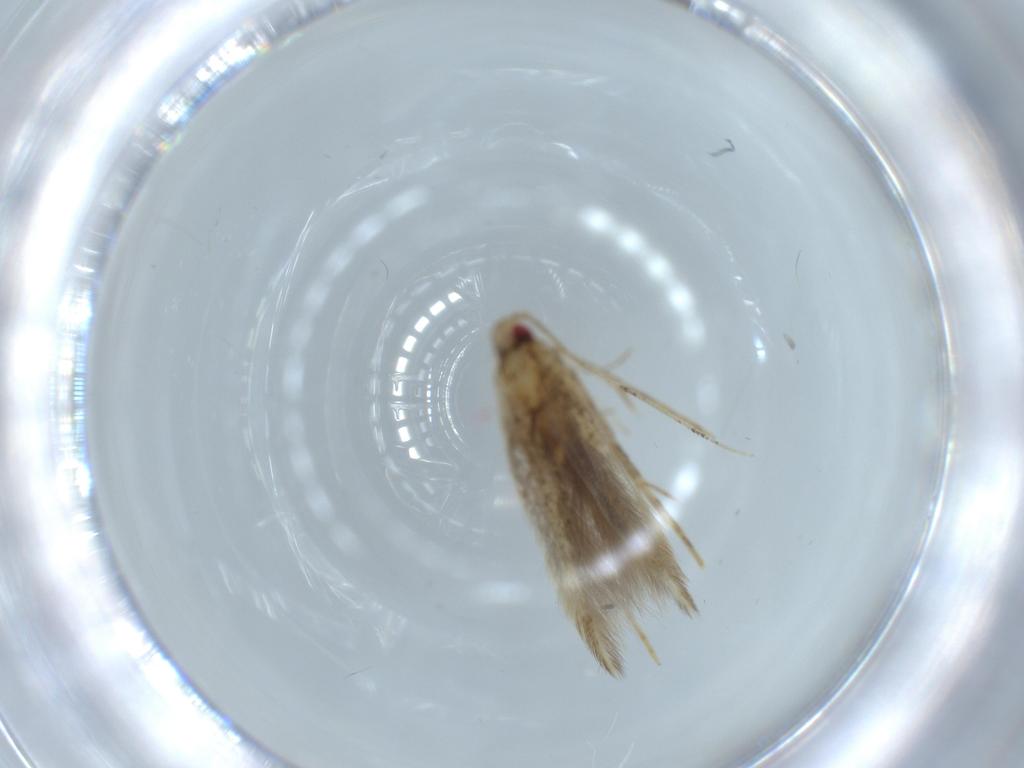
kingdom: Animalia
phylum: Arthropoda
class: Insecta
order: Lepidoptera
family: Cosmopterigidae
